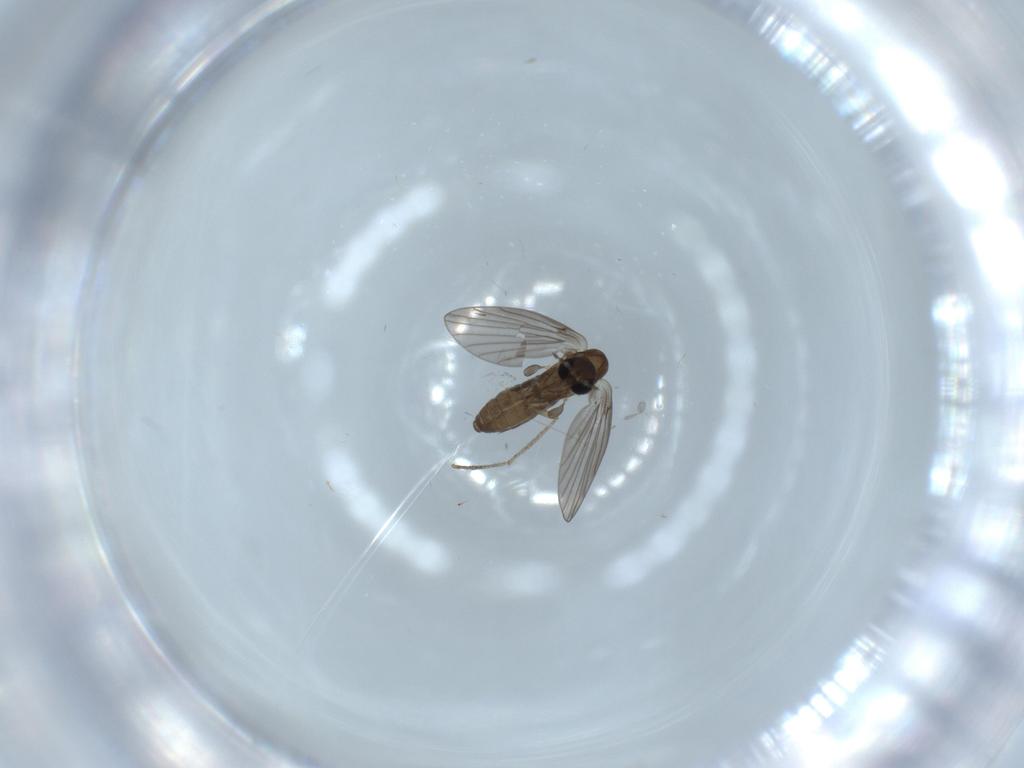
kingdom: Animalia
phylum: Arthropoda
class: Insecta
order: Diptera
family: Psychodidae
